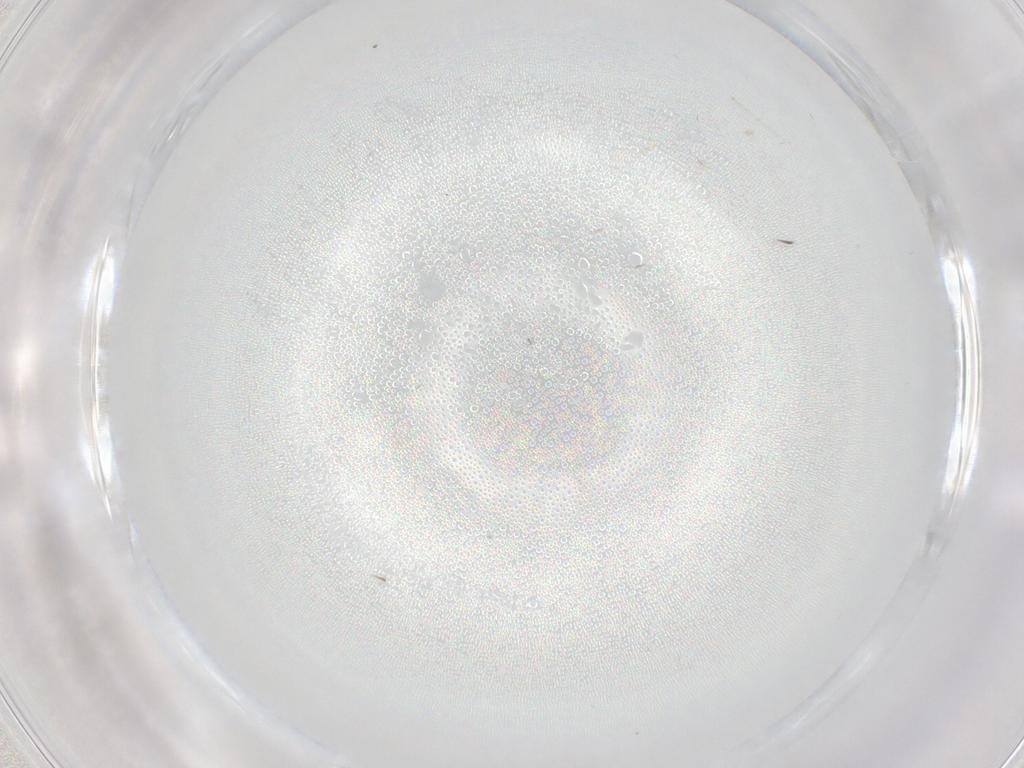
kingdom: Animalia
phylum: Arthropoda
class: Insecta
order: Diptera
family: Cecidomyiidae
